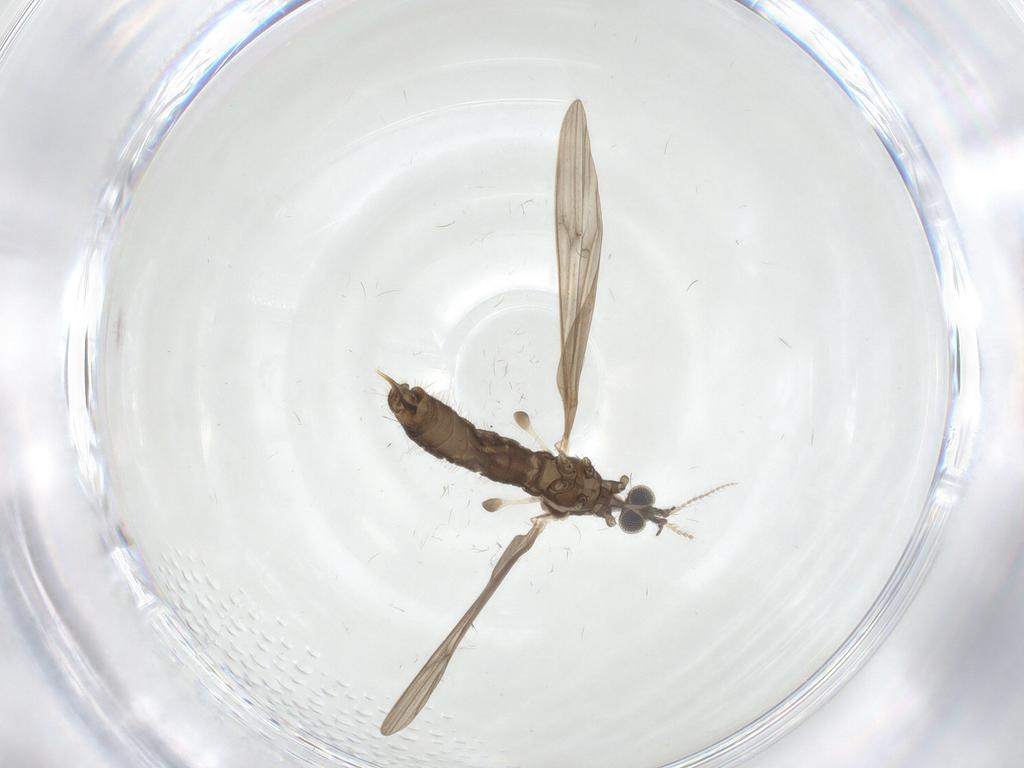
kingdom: Animalia
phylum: Arthropoda
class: Insecta
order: Diptera
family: Limoniidae
